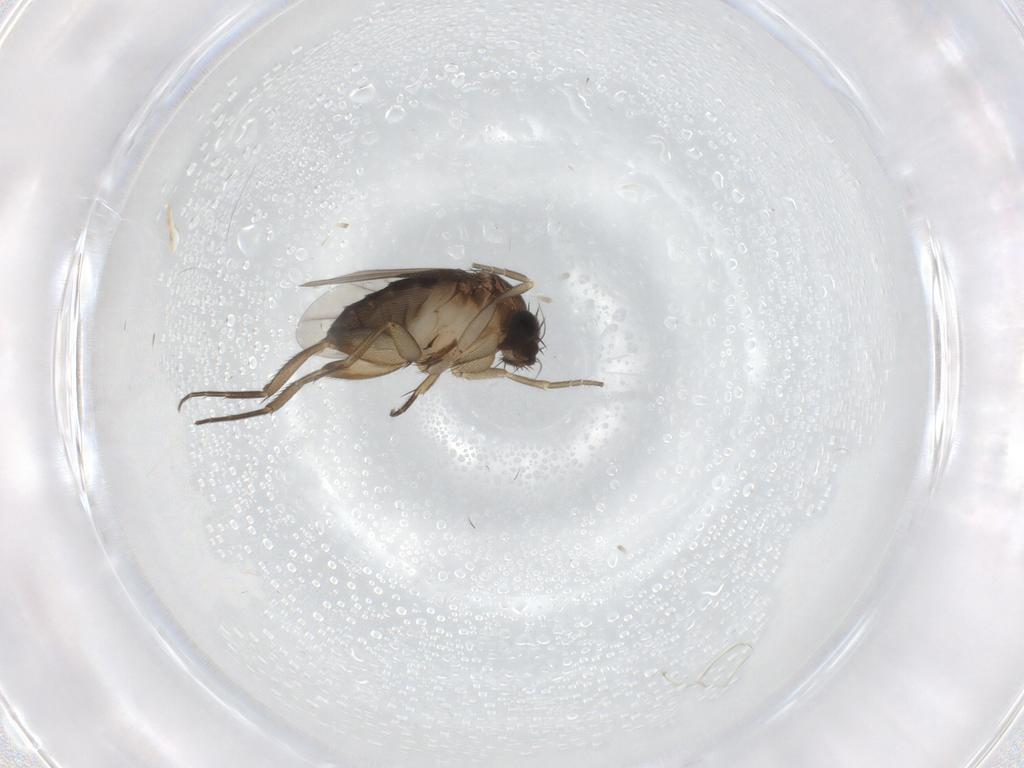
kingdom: Animalia
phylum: Arthropoda
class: Insecta
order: Diptera
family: Phoridae
